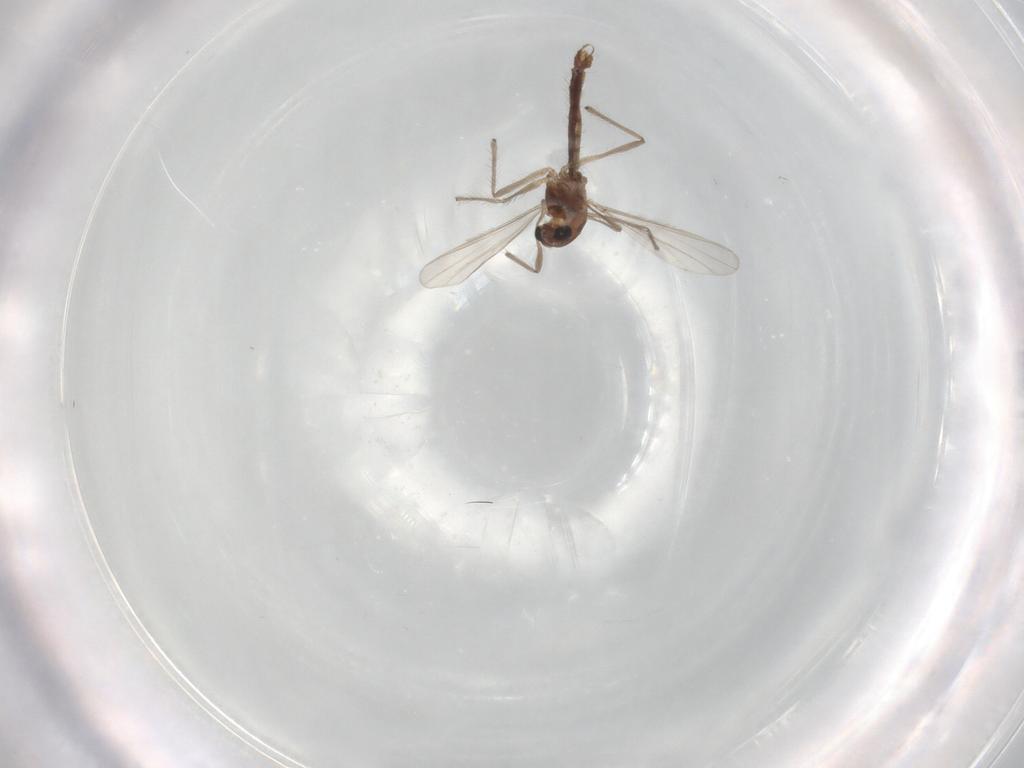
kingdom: Animalia
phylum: Arthropoda
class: Insecta
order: Diptera
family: Chironomidae
